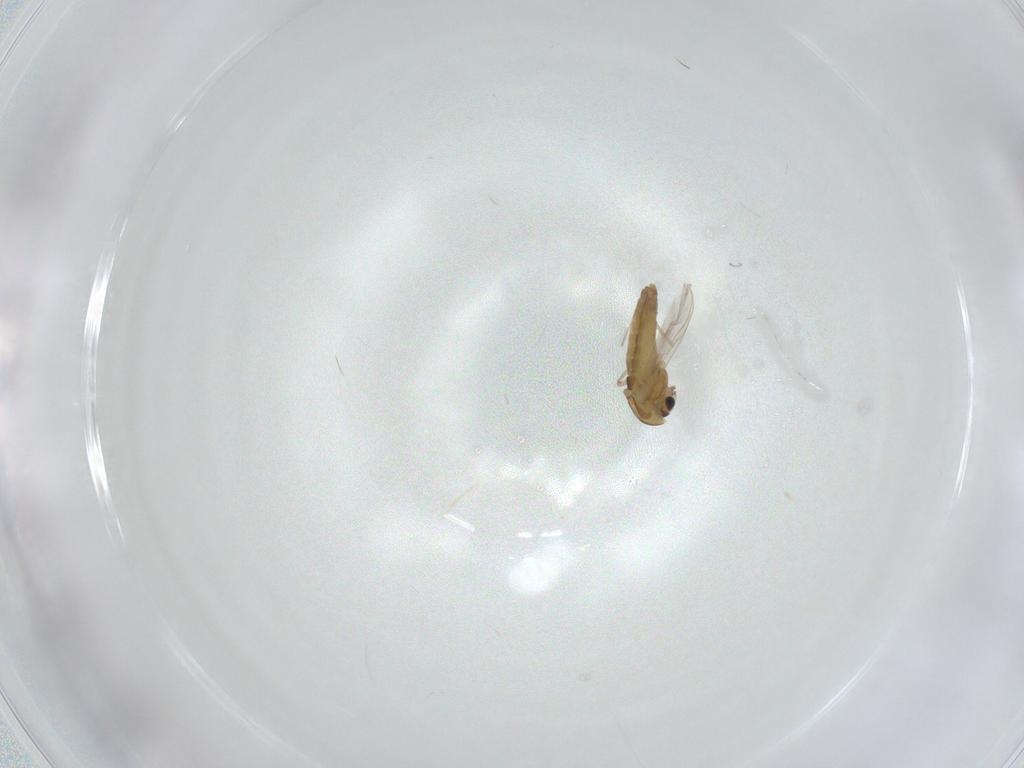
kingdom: Animalia
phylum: Arthropoda
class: Insecta
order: Diptera
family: Chironomidae
